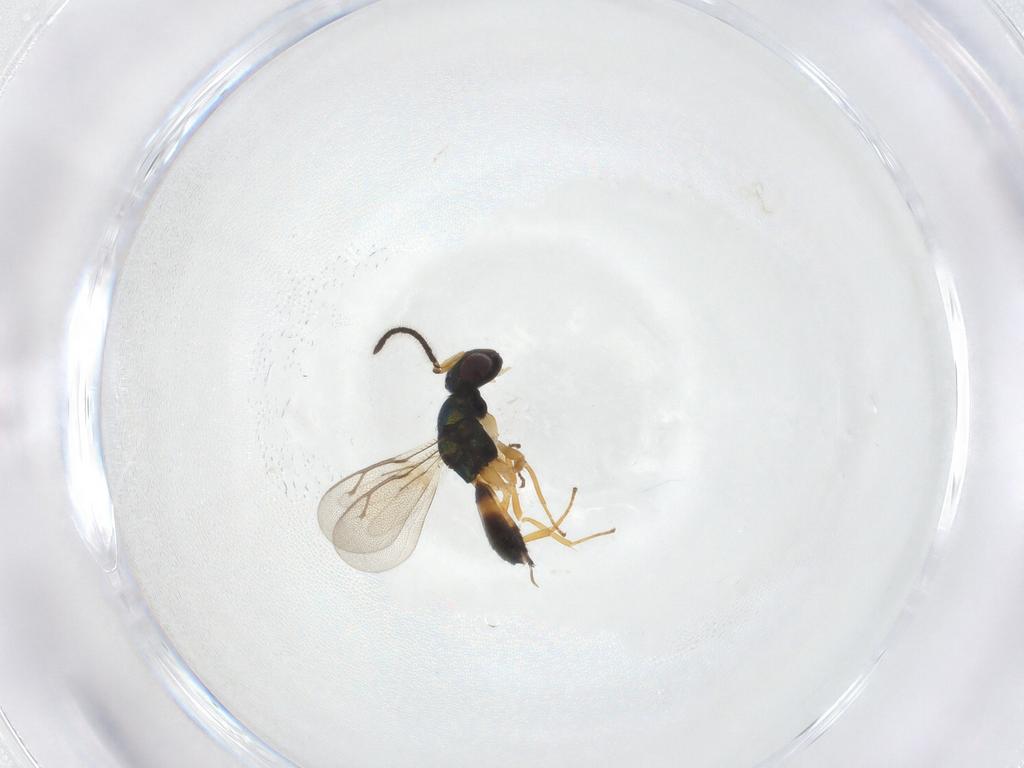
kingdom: Animalia
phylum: Arthropoda
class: Insecta
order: Hymenoptera
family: Pteromalidae
